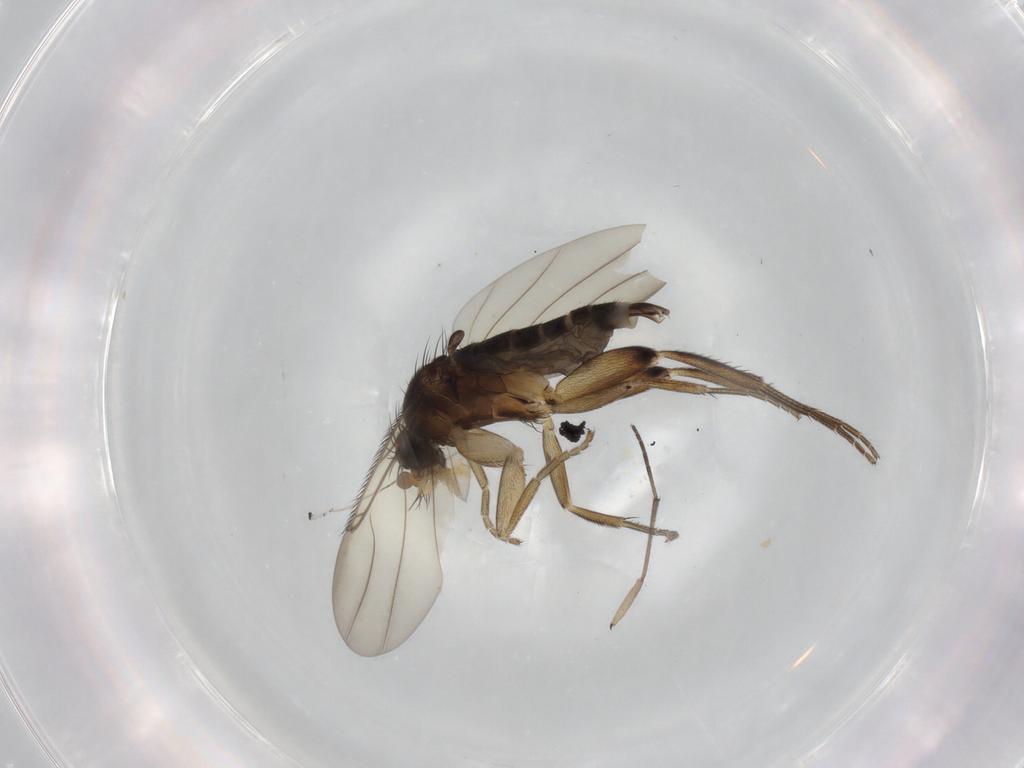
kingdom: Animalia
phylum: Arthropoda
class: Insecta
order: Diptera
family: Phoridae
